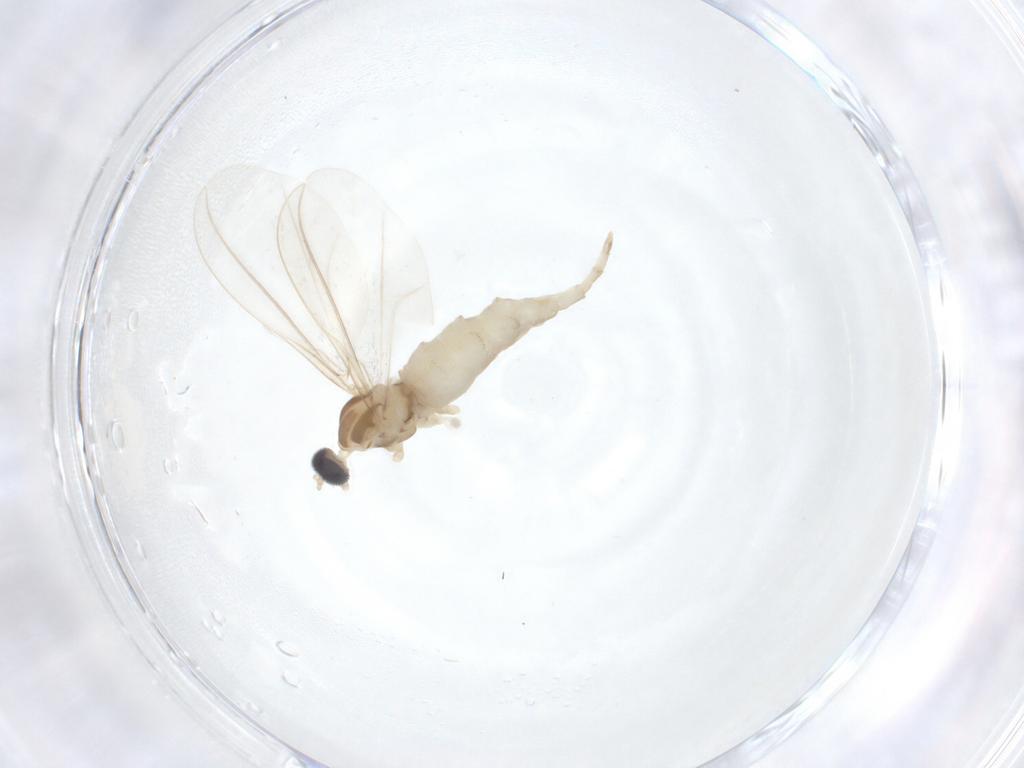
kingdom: Animalia
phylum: Arthropoda
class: Insecta
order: Diptera
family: Cecidomyiidae
